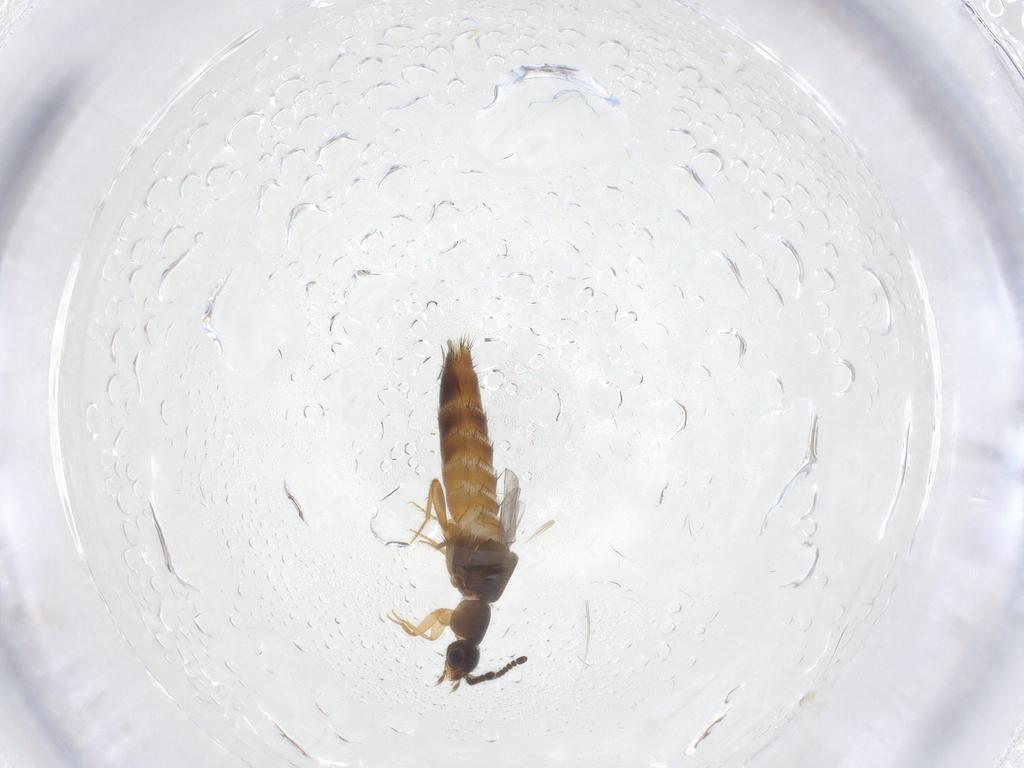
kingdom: Animalia
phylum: Arthropoda
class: Insecta
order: Coleoptera
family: Staphylinidae
